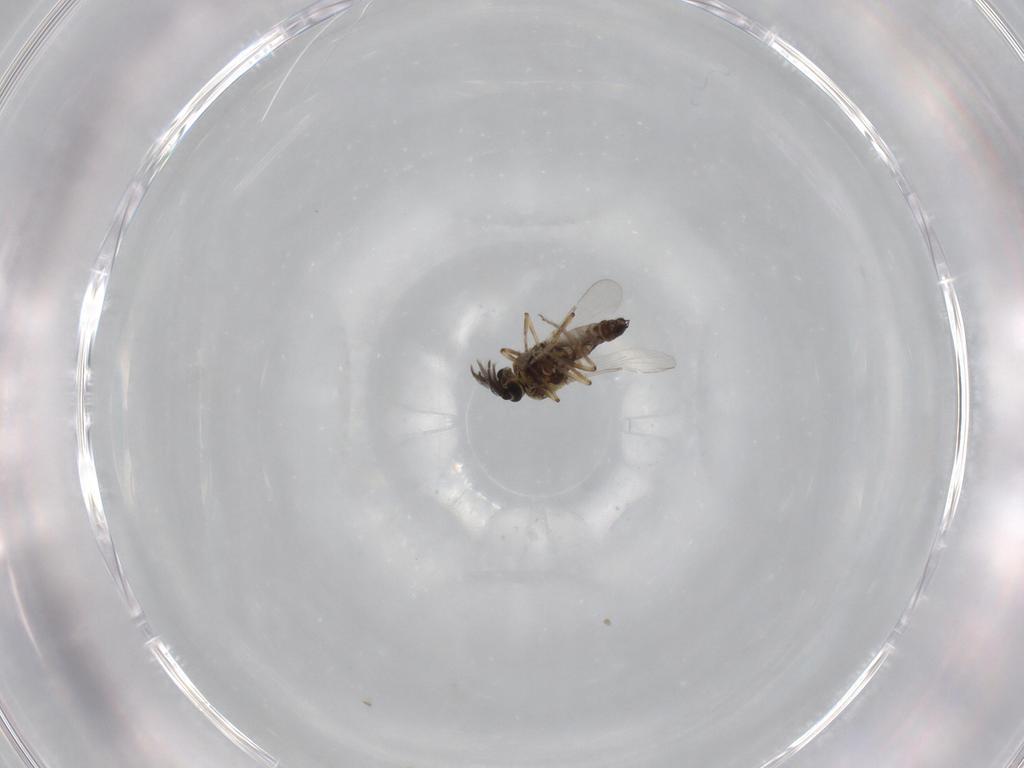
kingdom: Animalia
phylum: Arthropoda
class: Insecta
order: Diptera
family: Ceratopogonidae
